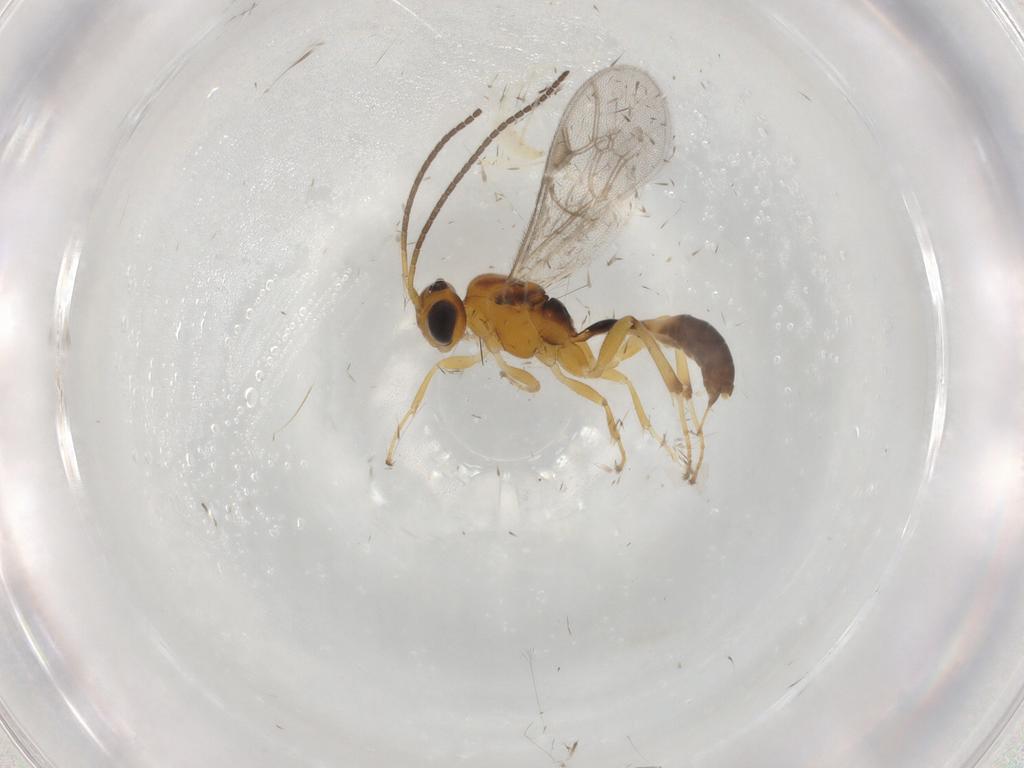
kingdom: Animalia
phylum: Arthropoda
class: Insecta
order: Hymenoptera
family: Ichneumonidae
